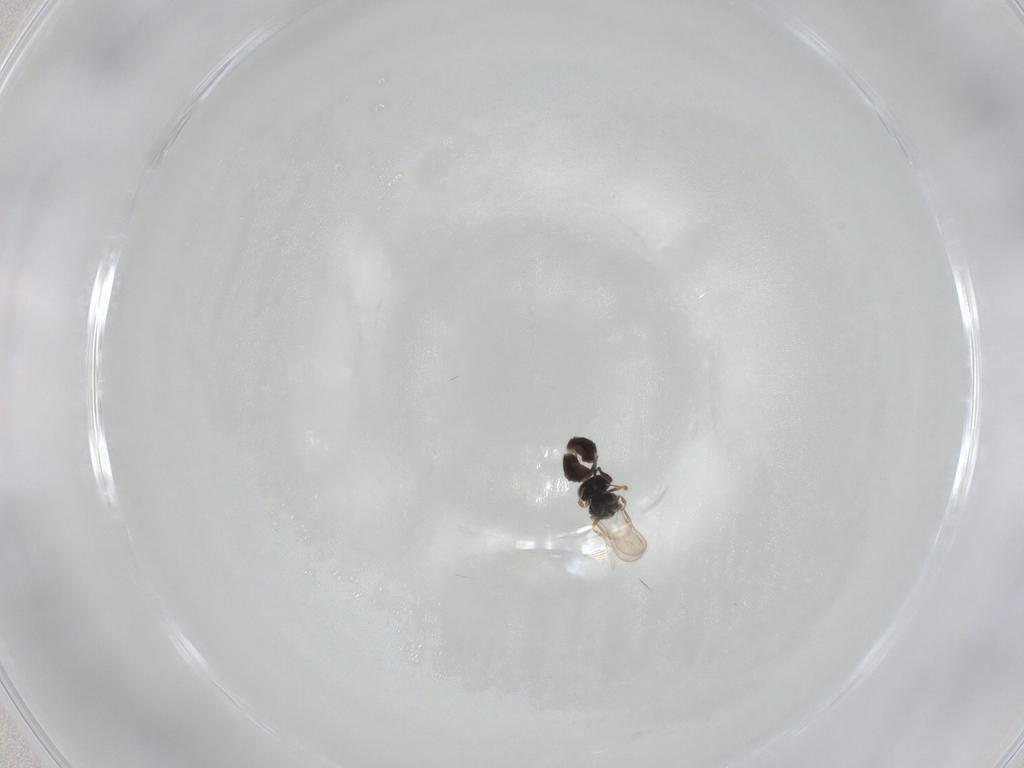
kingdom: Animalia
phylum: Arthropoda
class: Insecta
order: Hymenoptera
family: Scelionidae
